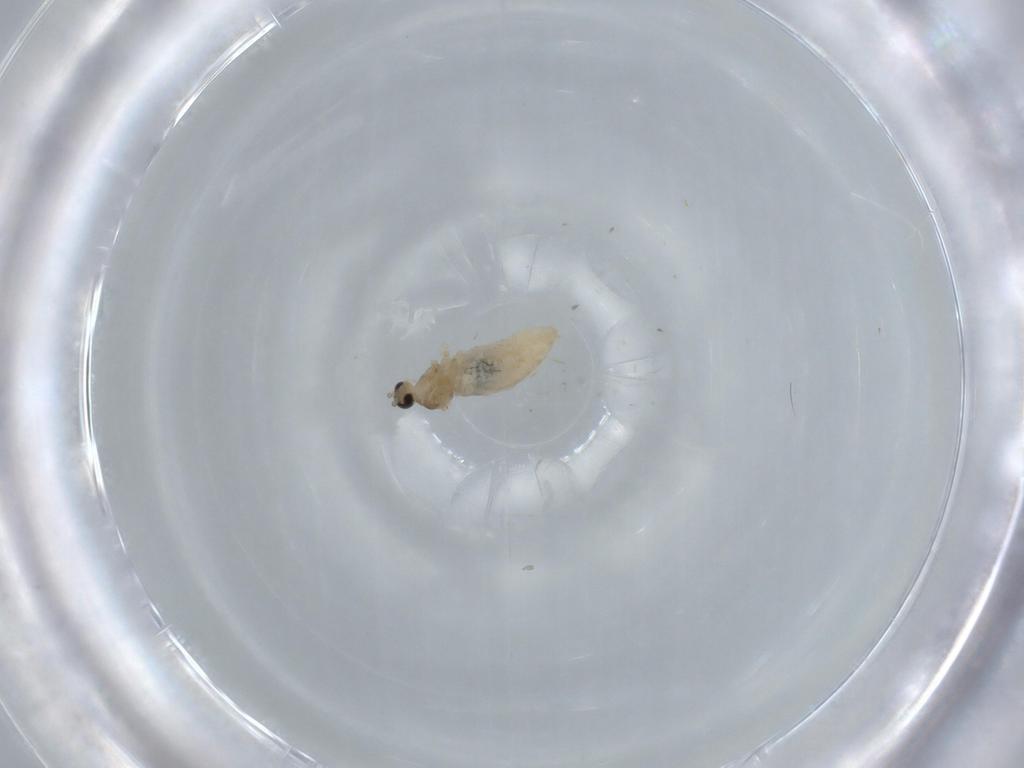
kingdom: Animalia
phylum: Arthropoda
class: Insecta
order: Diptera
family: Cecidomyiidae
